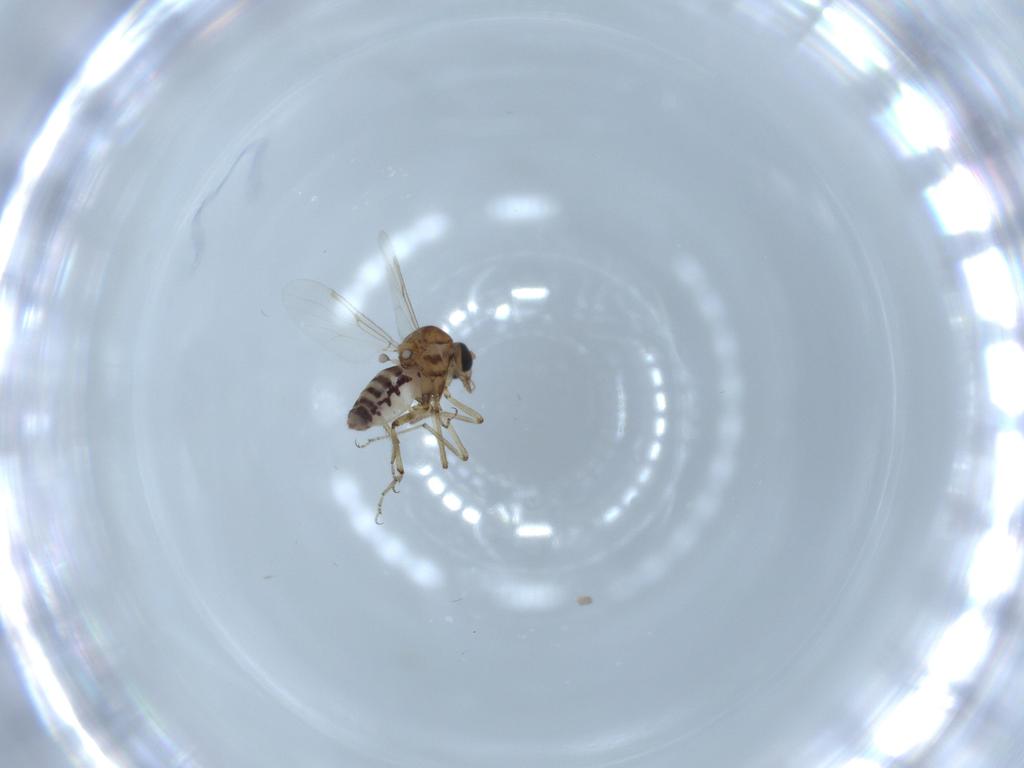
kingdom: Animalia
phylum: Arthropoda
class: Insecta
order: Diptera
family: Ceratopogonidae
